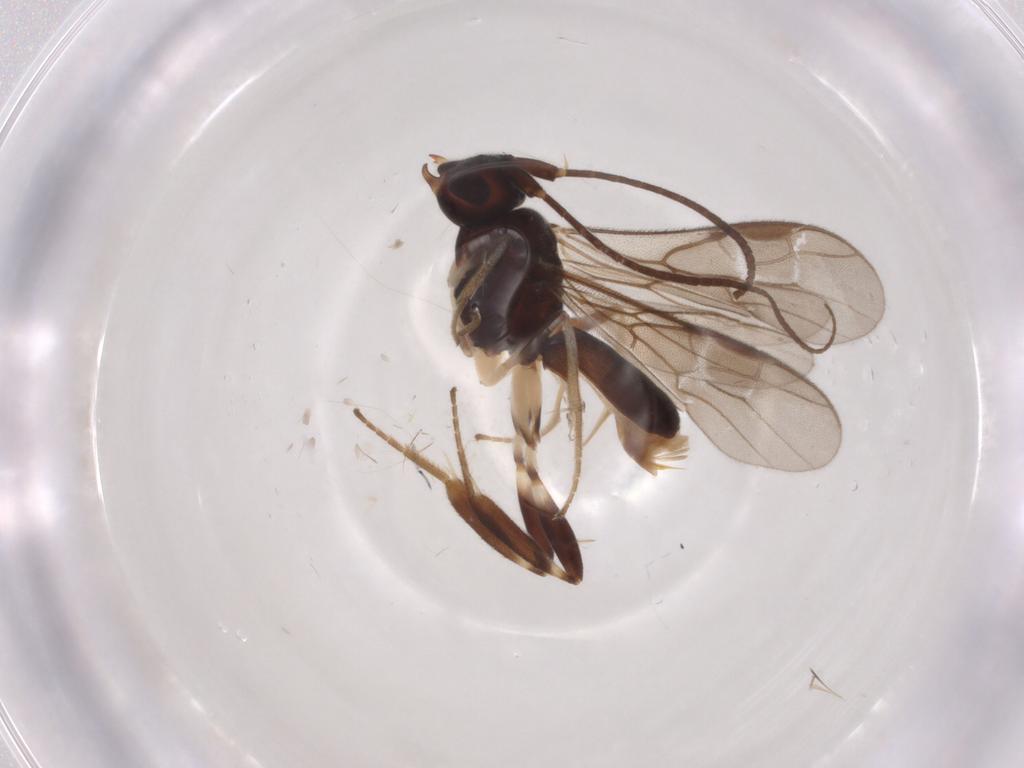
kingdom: Animalia
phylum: Arthropoda
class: Insecta
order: Hymenoptera
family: Braconidae
